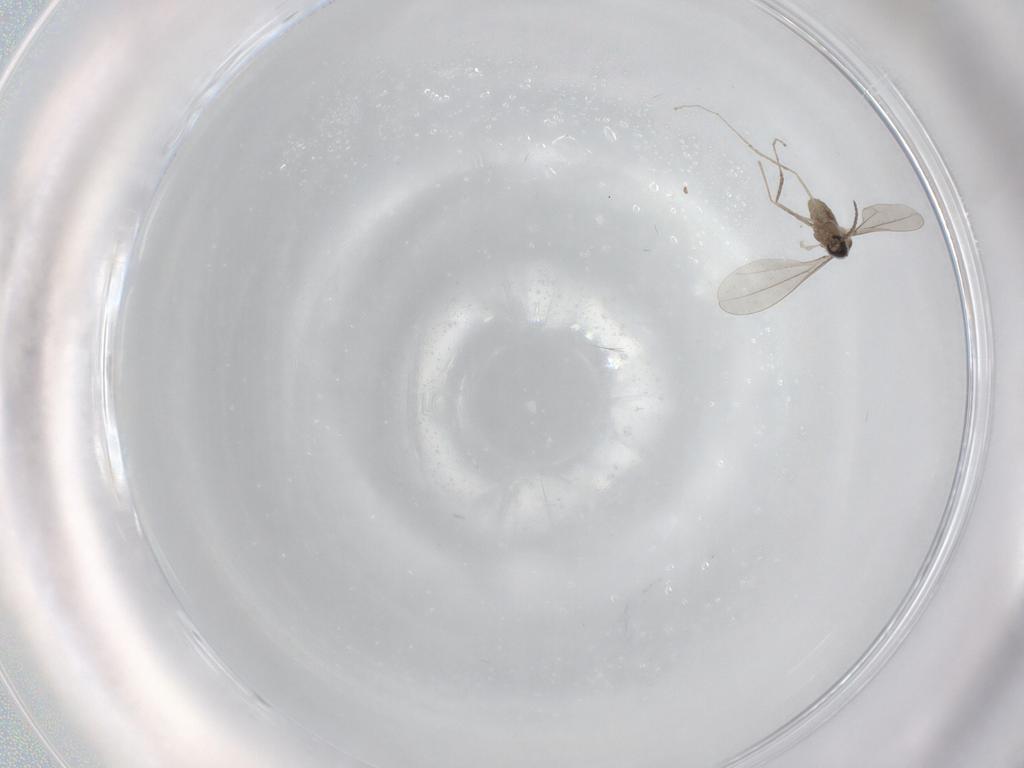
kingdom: Animalia
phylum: Arthropoda
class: Insecta
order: Diptera
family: Cecidomyiidae
